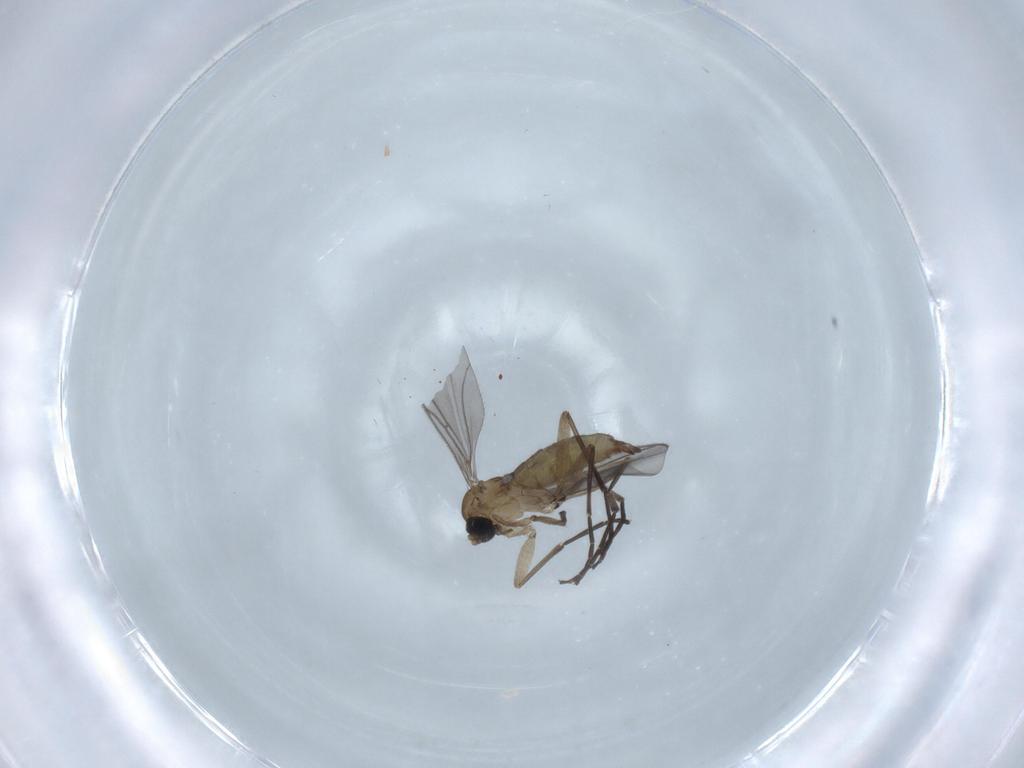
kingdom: Animalia
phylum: Arthropoda
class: Insecta
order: Diptera
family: Sciaridae
